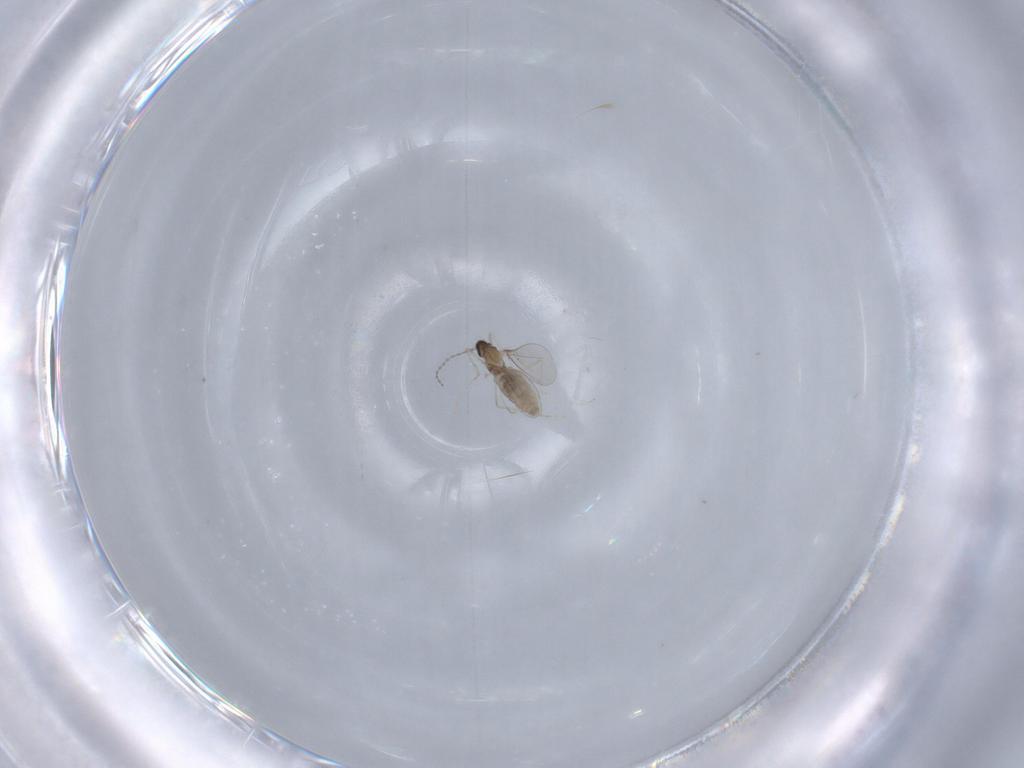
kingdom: Animalia
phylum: Arthropoda
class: Insecta
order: Diptera
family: Cecidomyiidae
